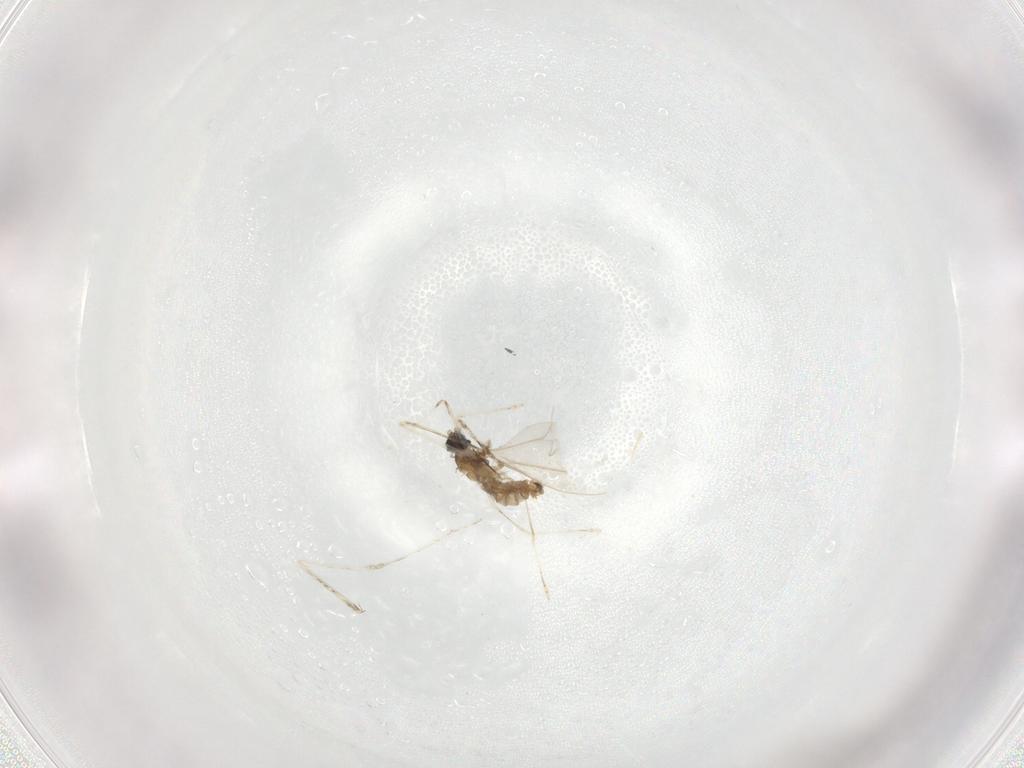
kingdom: Animalia
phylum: Arthropoda
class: Insecta
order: Diptera
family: Cecidomyiidae
